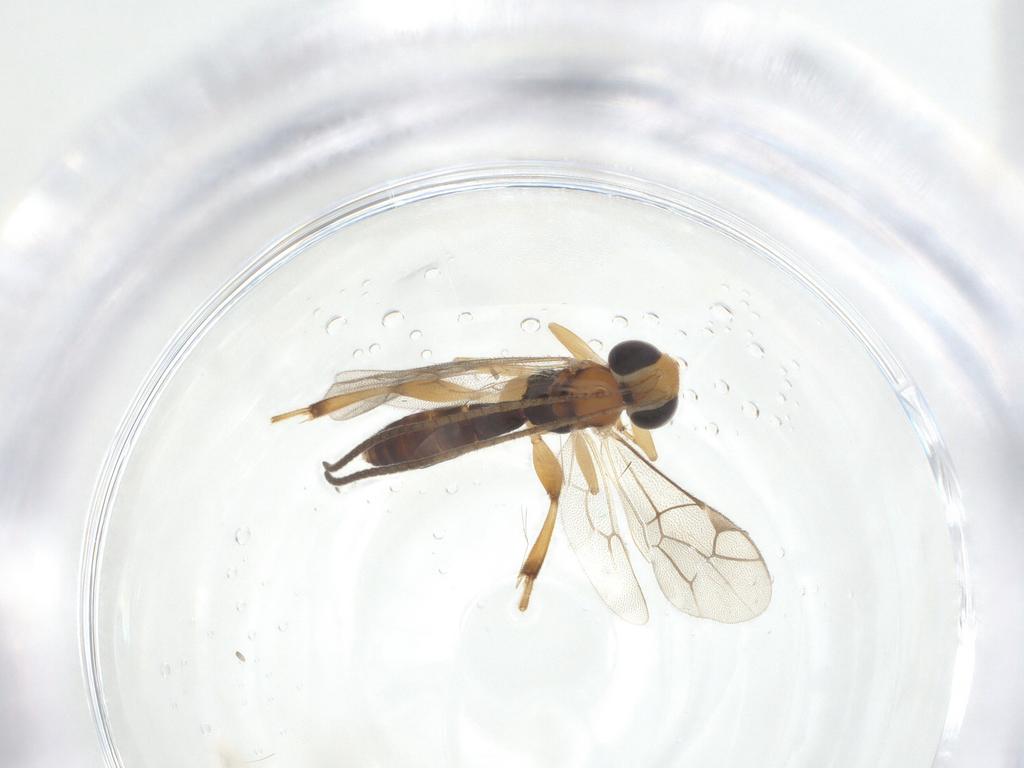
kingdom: Animalia
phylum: Arthropoda
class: Insecta
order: Hymenoptera
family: Ichneumonidae
